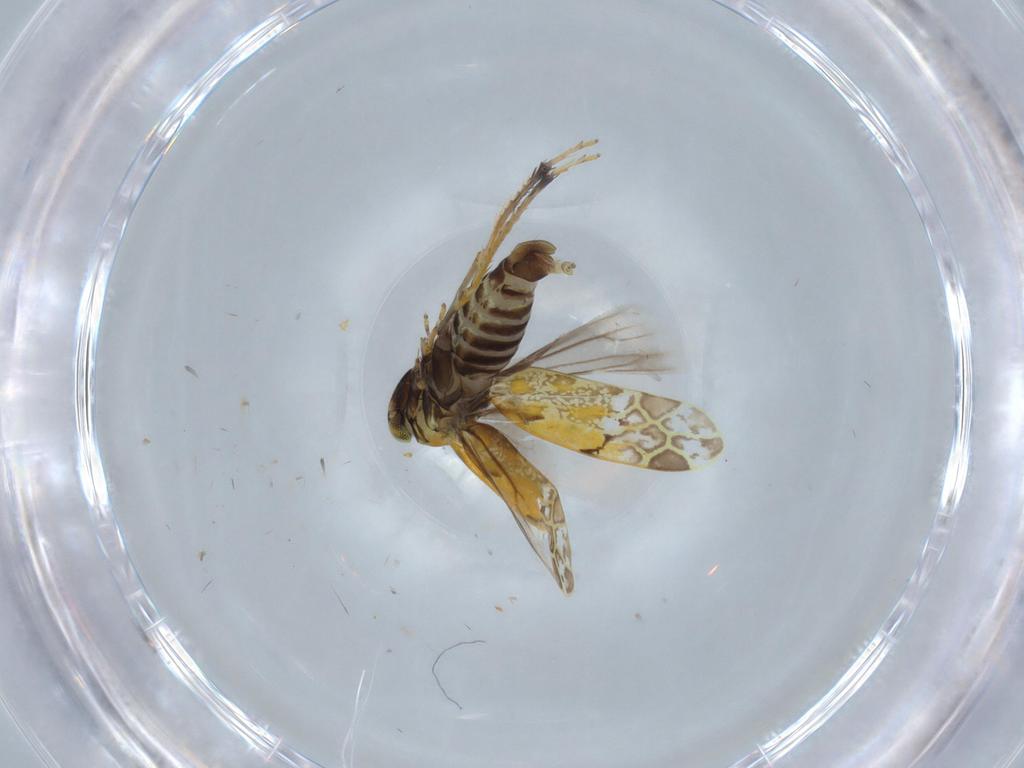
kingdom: Animalia
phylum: Arthropoda
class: Insecta
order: Hemiptera
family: Cicadellidae
